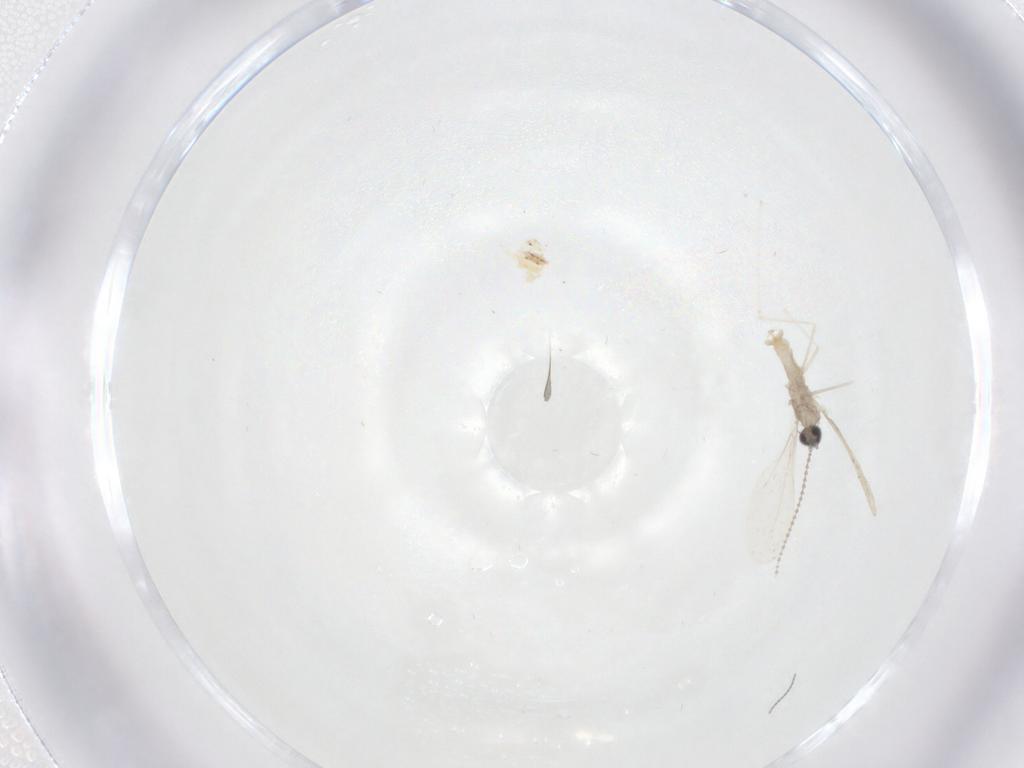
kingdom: Animalia
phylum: Arthropoda
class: Insecta
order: Diptera
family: Cecidomyiidae
